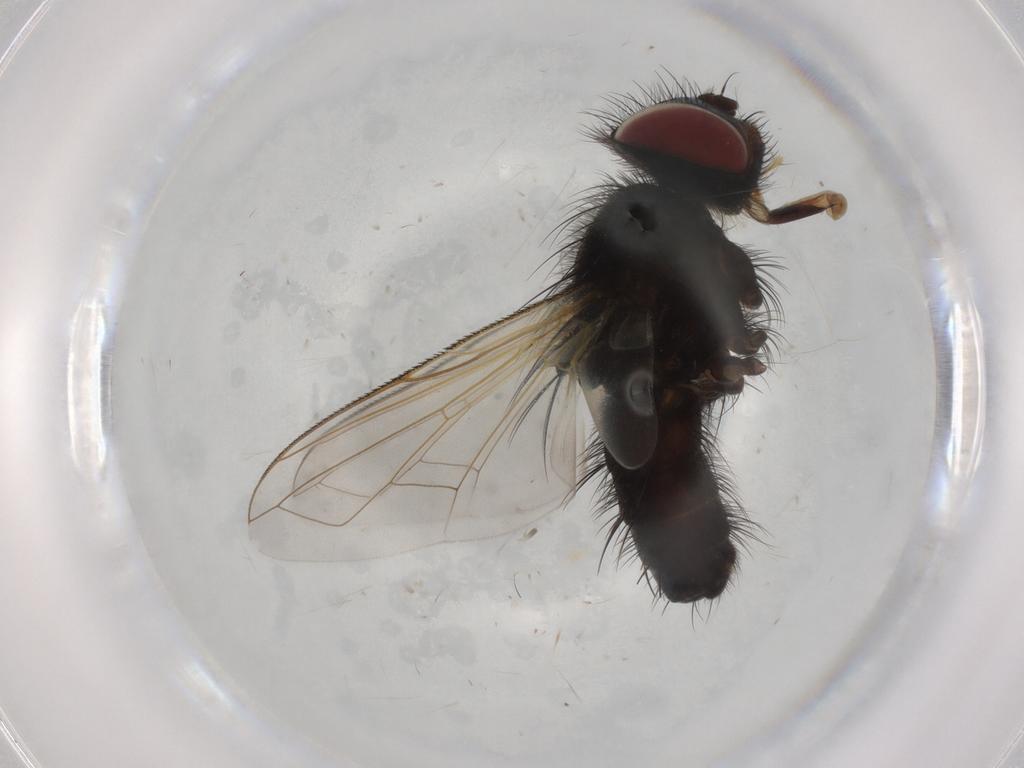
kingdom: Animalia
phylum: Arthropoda
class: Insecta
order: Diptera
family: Tachinidae
